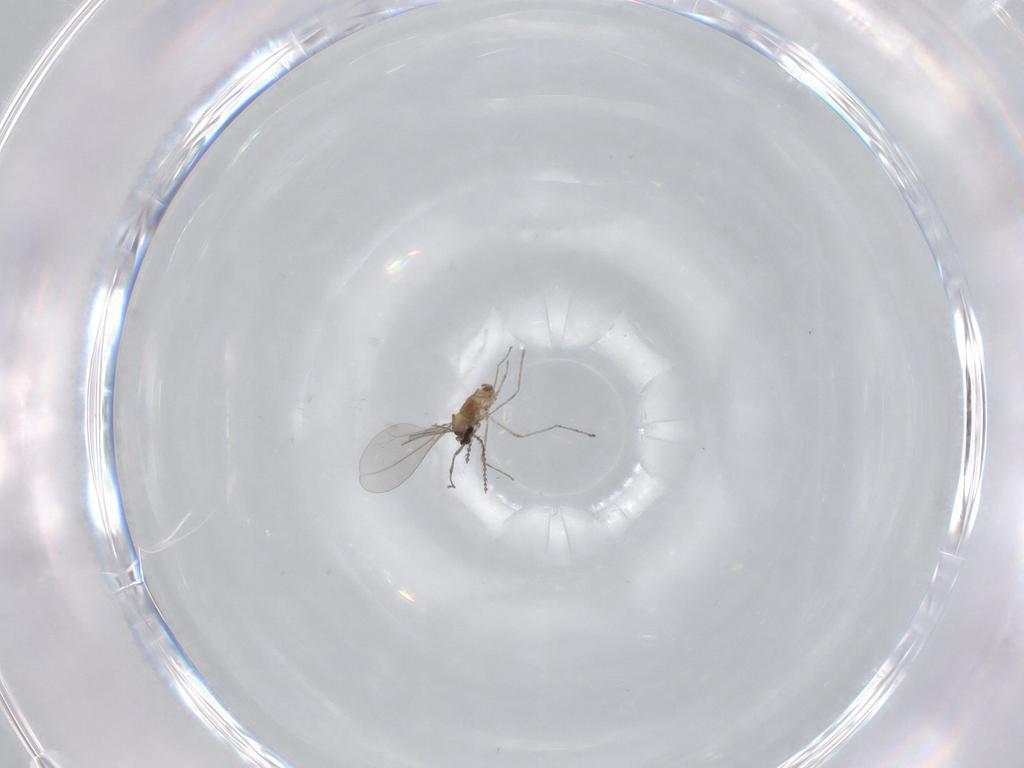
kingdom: Animalia
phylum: Arthropoda
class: Insecta
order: Diptera
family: Cecidomyiidae
